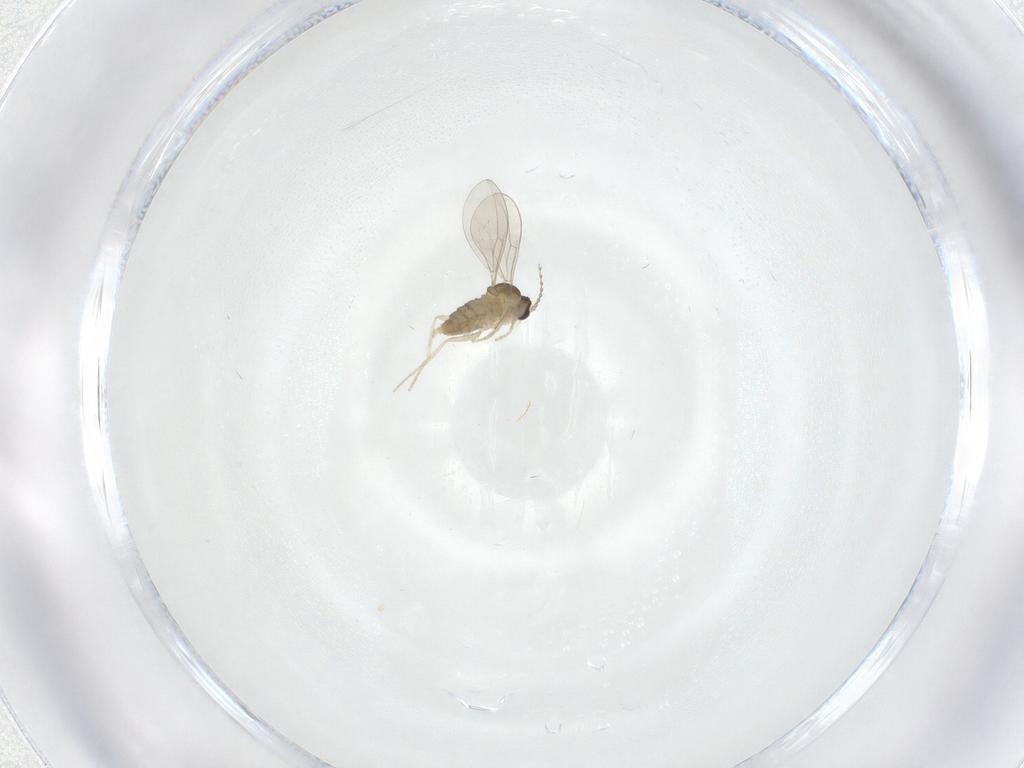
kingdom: Animalia
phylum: Arthropoda
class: Insecta
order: Diptera
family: Cecidomyiidae
